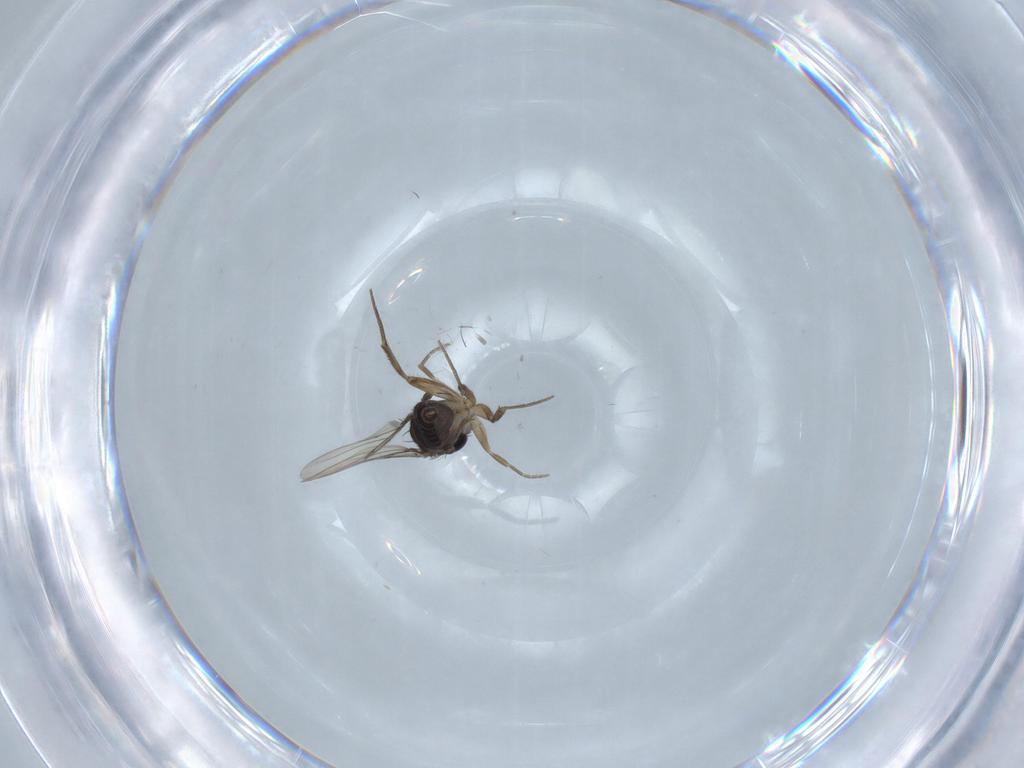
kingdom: Animalia
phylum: Arthropoda
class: Insecta
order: Diptera
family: Phoridae
